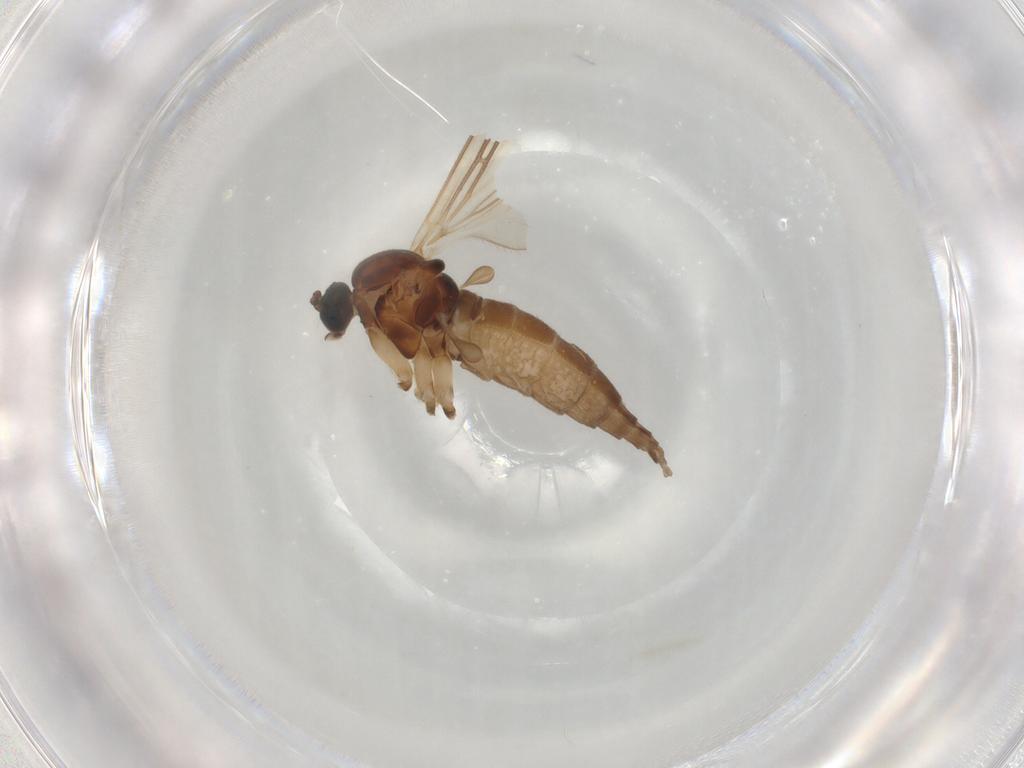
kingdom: Animalia
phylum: Arthropoda
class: Insecta
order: Diptera
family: Sciaridae
